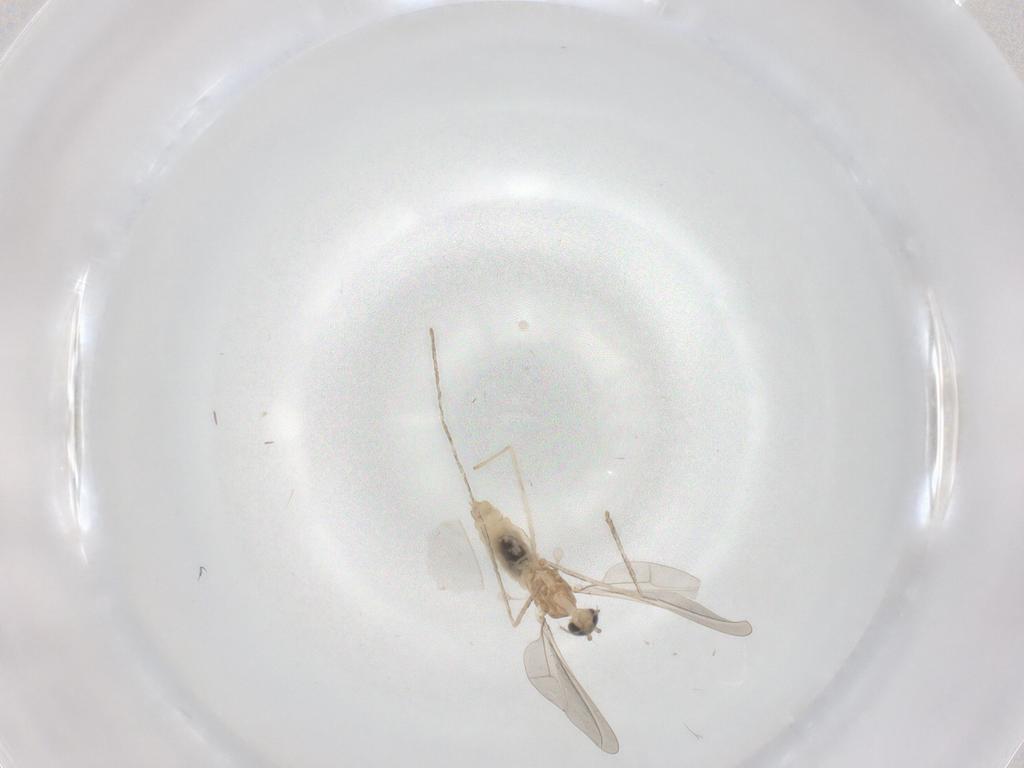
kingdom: Animalia
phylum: Arthropoda
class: Insecta
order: Diptera
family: Cecidomyiidae
